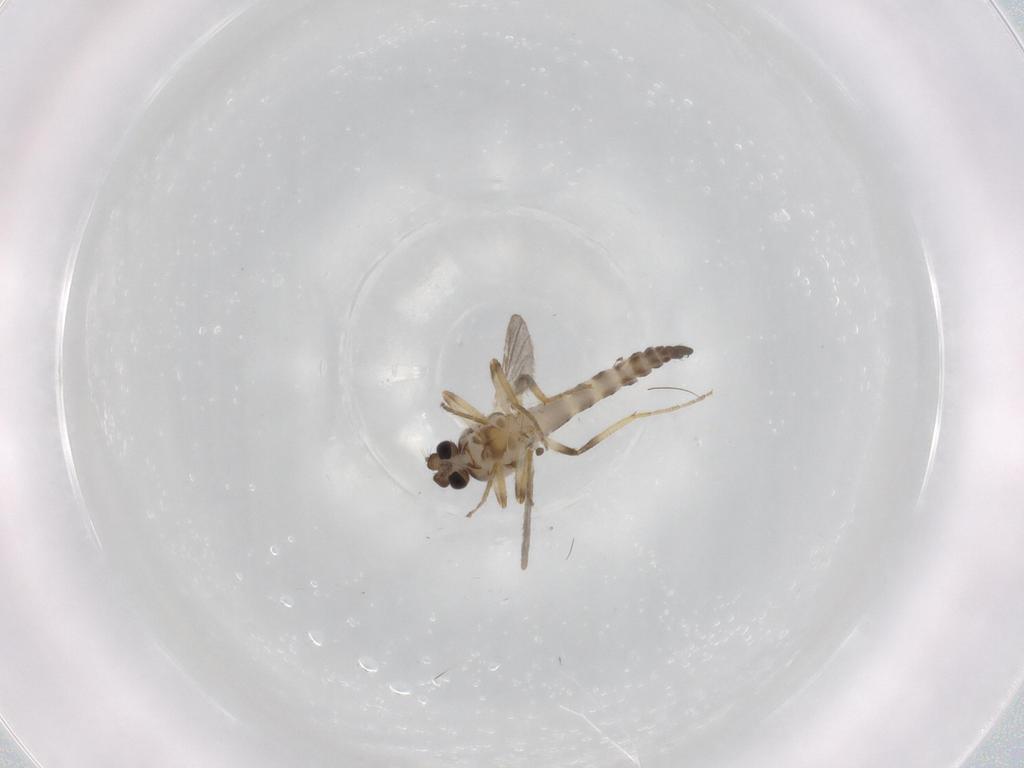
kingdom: Animalia
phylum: Arthropoda
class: Insecta
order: Diptera
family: Ceratopogonidae
